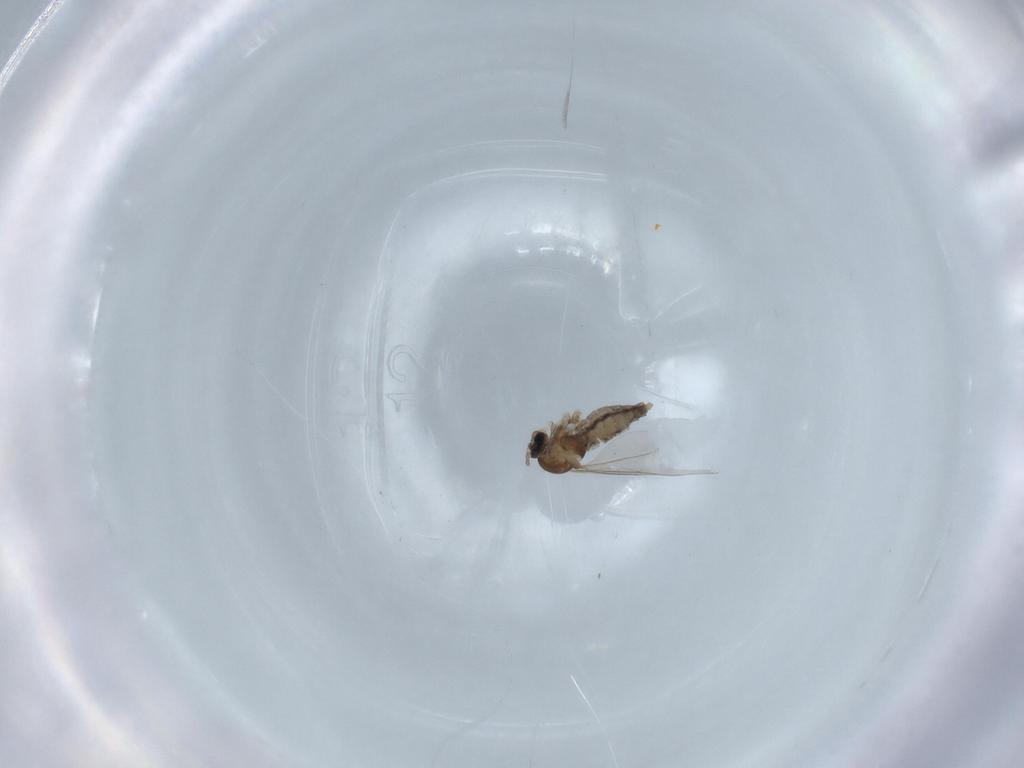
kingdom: Animalia
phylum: Arthropoda
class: Insecta
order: Diptera
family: Cecidomyiidae
